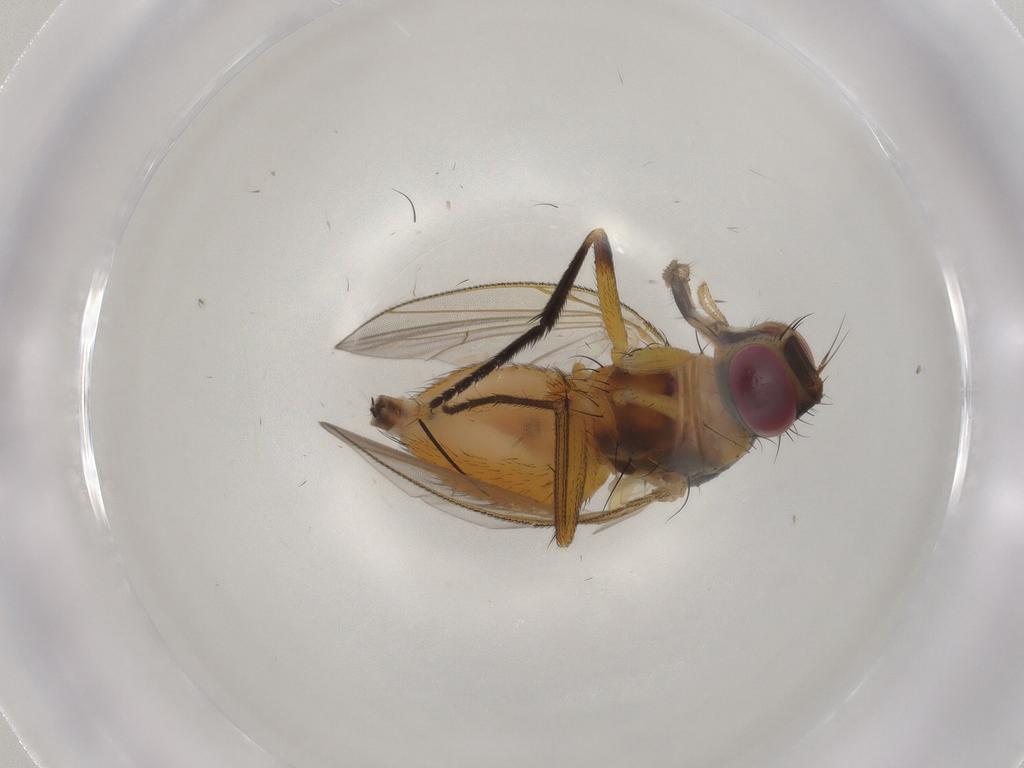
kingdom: Animalia
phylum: Arthropoda
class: Insecta
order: Diptera
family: Muscidae
